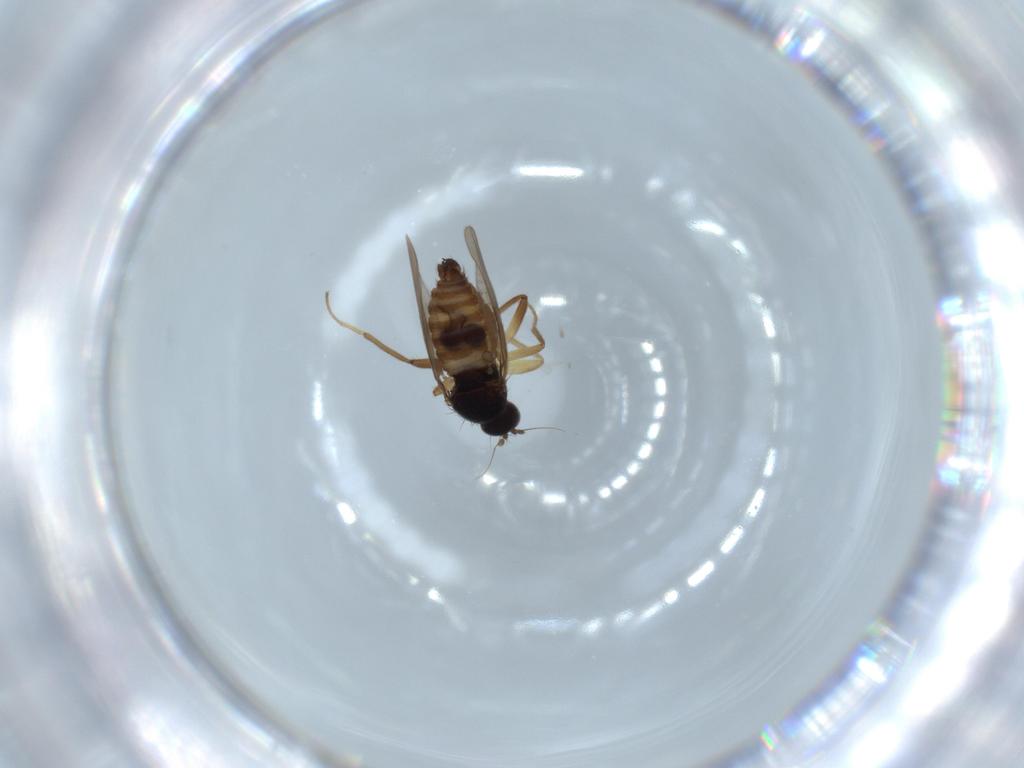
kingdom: Animalia
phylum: Arthropoda
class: Insecta
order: Diptera
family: Hybotidae
